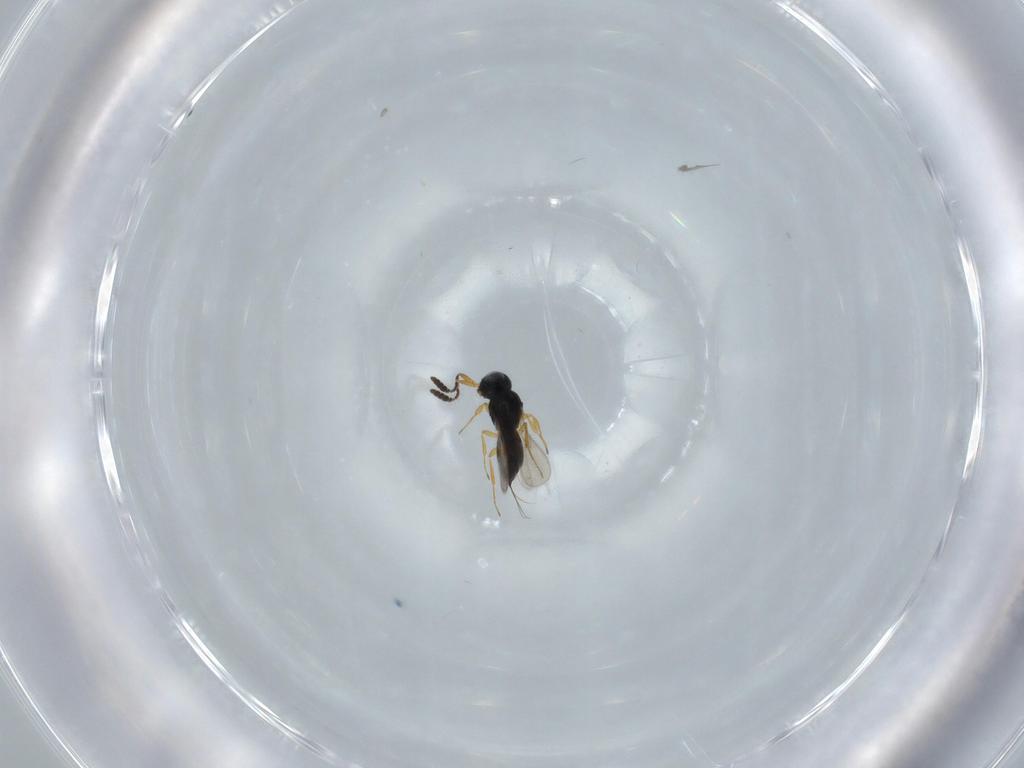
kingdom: Animalia
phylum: Arthropoda
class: Insecta
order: Hymenoptera
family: Scelionidae
